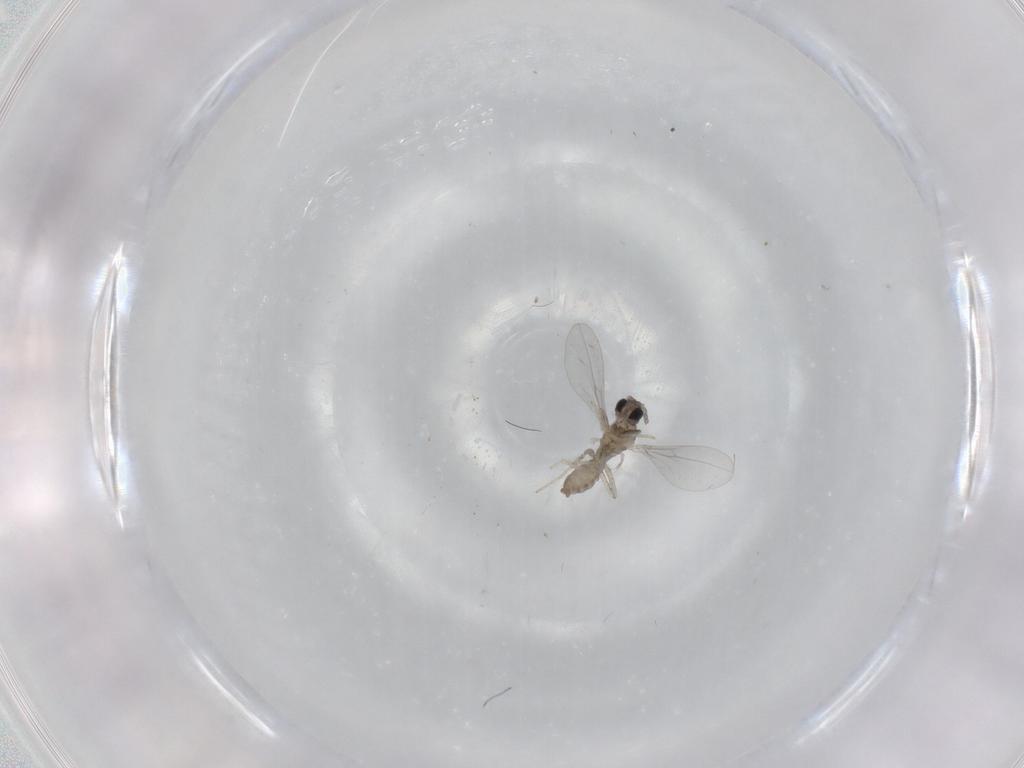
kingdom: Animalia
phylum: Arthropoda
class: Insecta
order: Diptera
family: Cecidomyiidae
